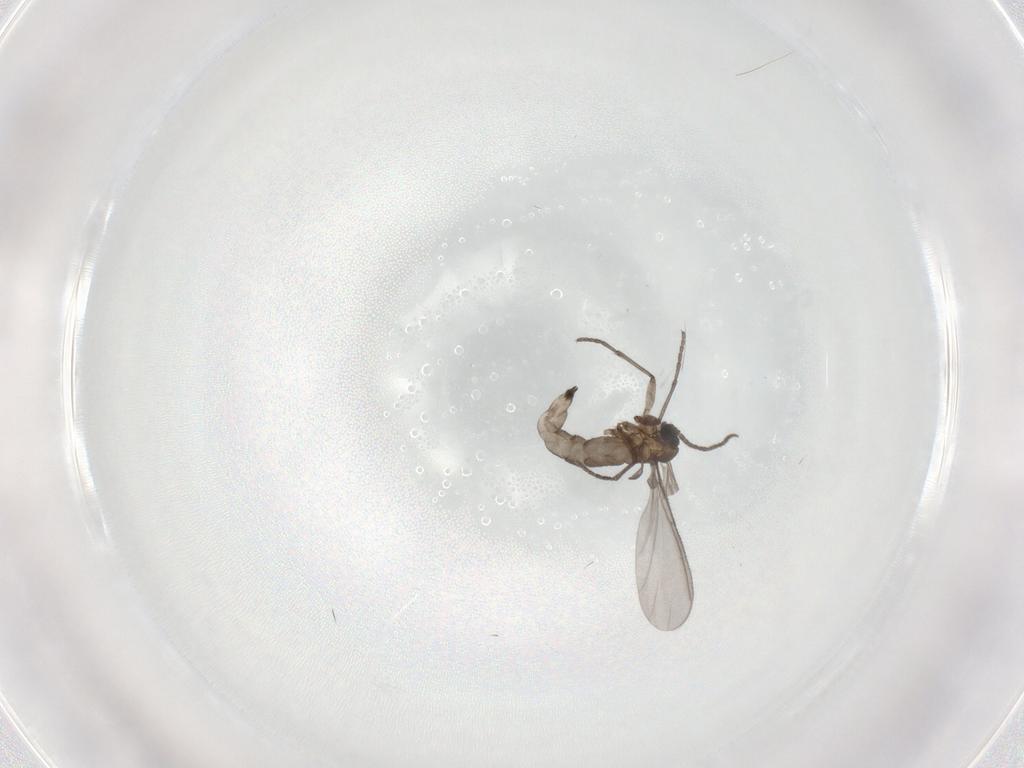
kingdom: Animalia
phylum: Arthropoda
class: Insecta
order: Diptera
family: Sciaridae
